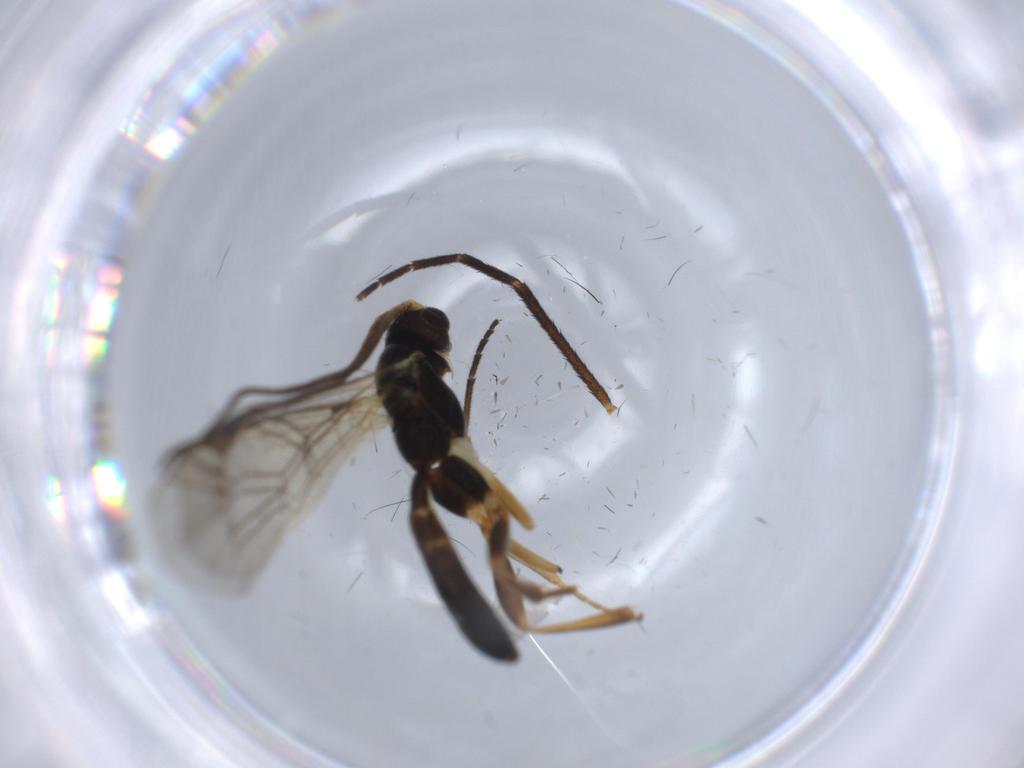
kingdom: Animalia
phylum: Arthropoda
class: Insecta
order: Hymenoptera
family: Ichneumonidae
